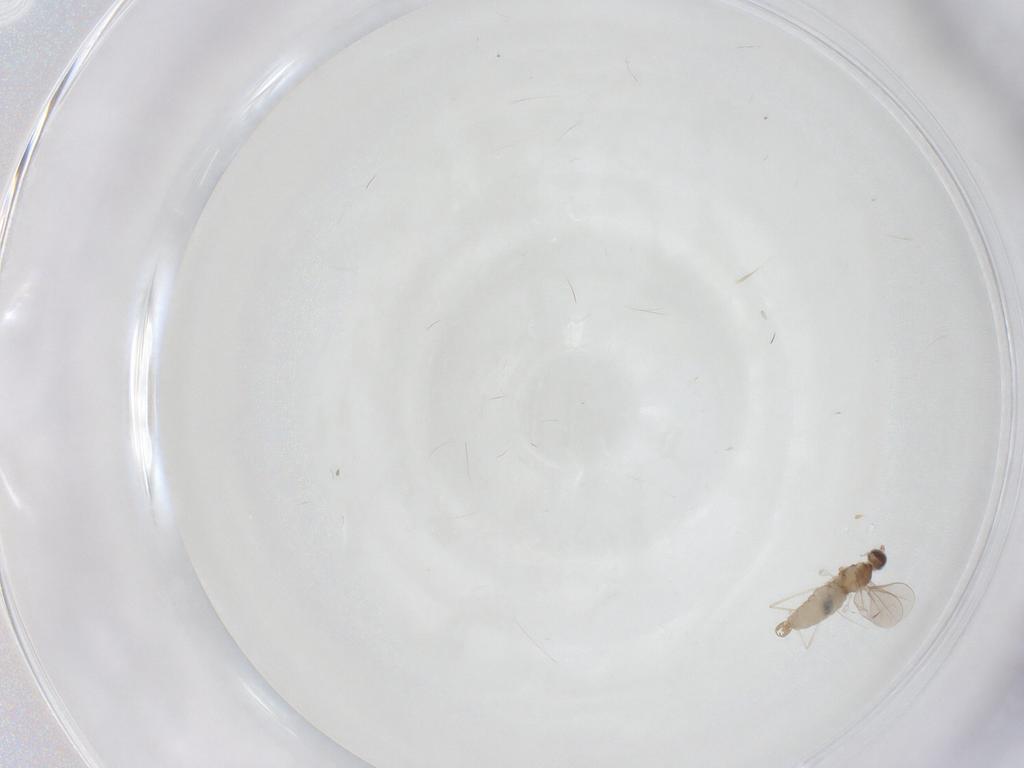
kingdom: Animalia
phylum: Arthropoda
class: Insecta
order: Diptera
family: Cecidomyiidae
